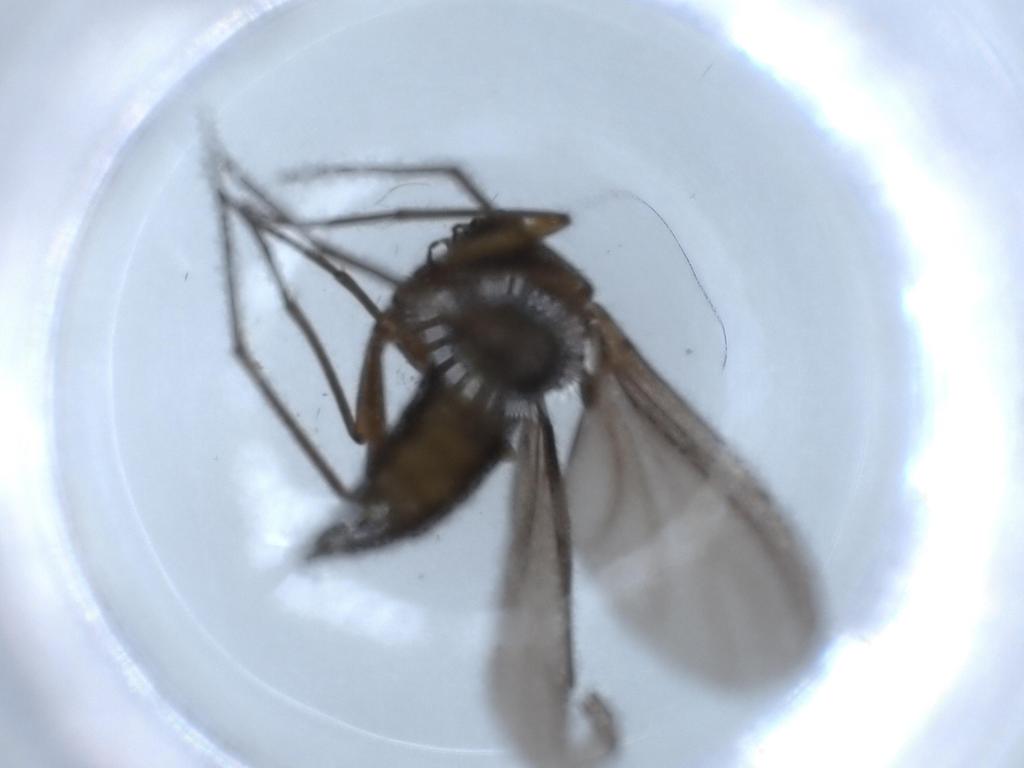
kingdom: Animalia
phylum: Arthropoda
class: Insecta
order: Diptera
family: Sciaridae
